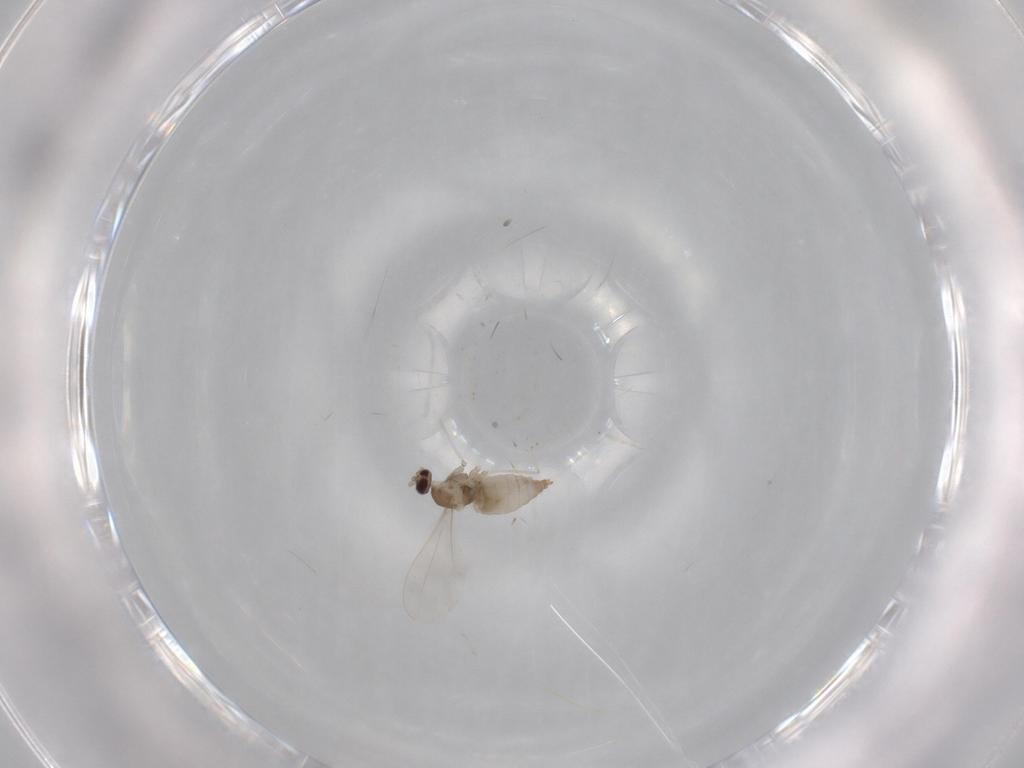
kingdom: Animalia
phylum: Arthropoda
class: Insecta
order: Diptera
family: Cecidomyiidae
